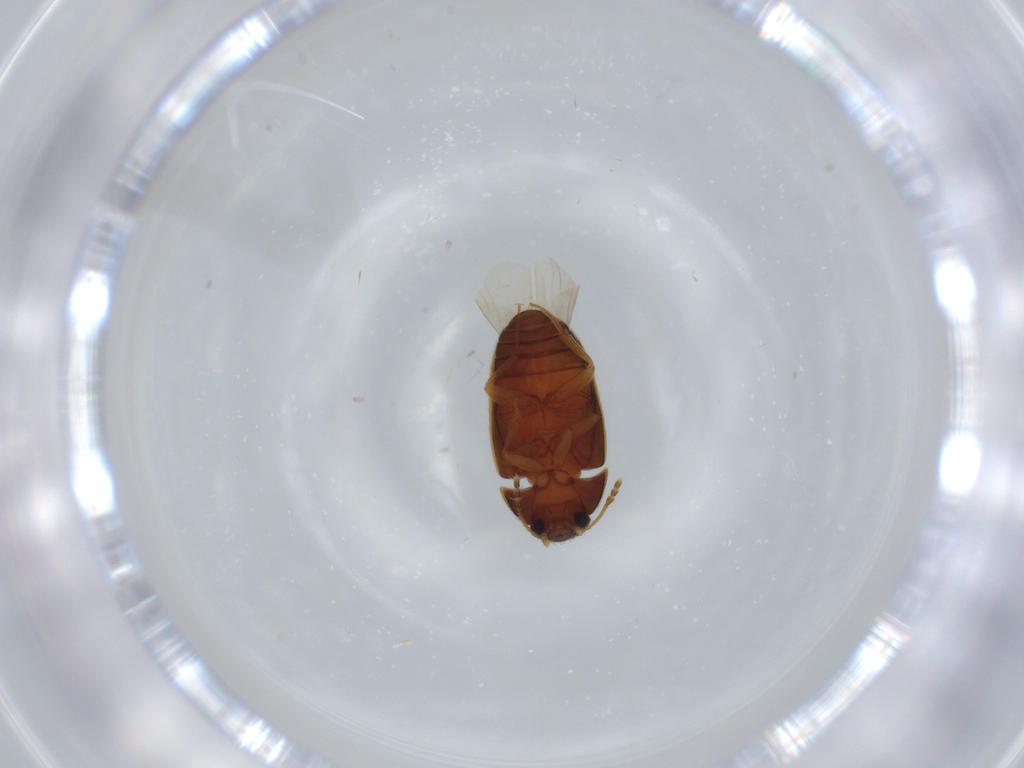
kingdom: Animalia
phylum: Arthropoda
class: Insecta
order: Coleoptera
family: Mycetophagidae
